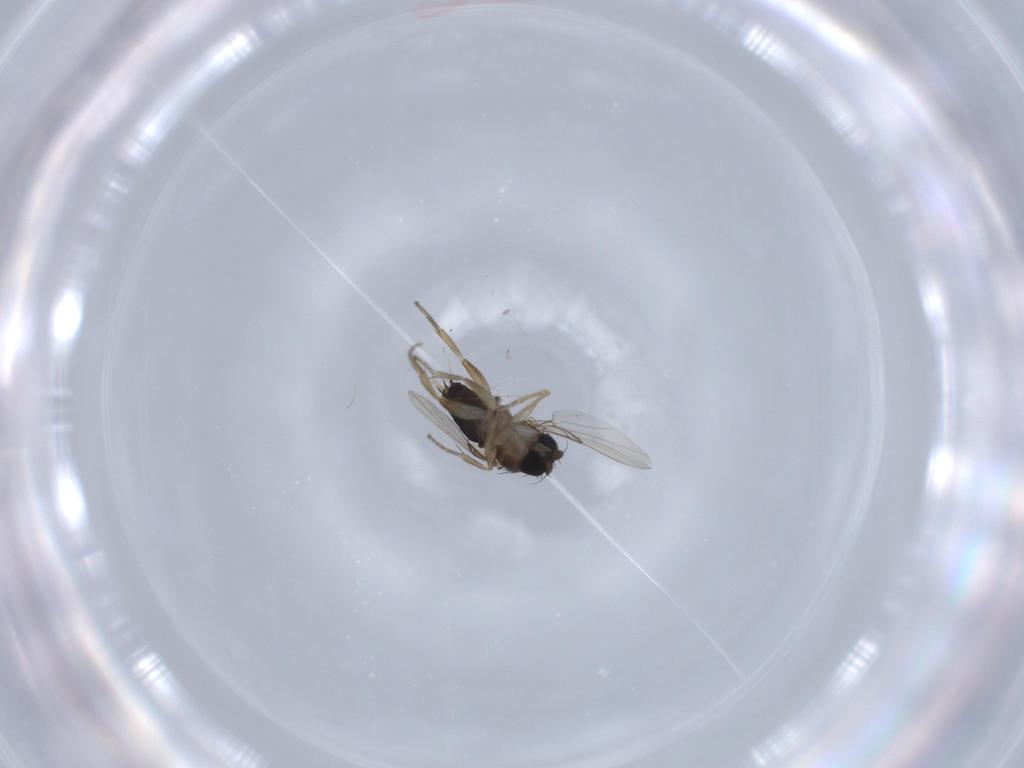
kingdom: Animalia
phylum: Arthropoda
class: Insecta
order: Diptera
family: Phoridae
